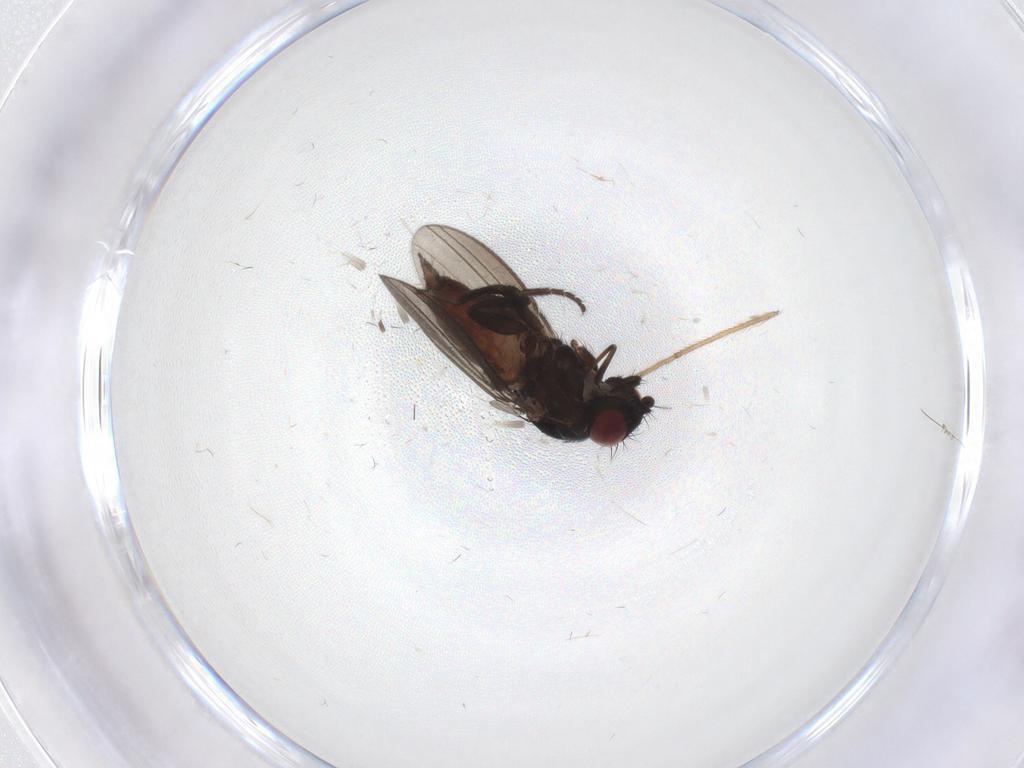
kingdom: Animalia
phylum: Arthropoda
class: Insecta
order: Diptera
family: Milichiidae
